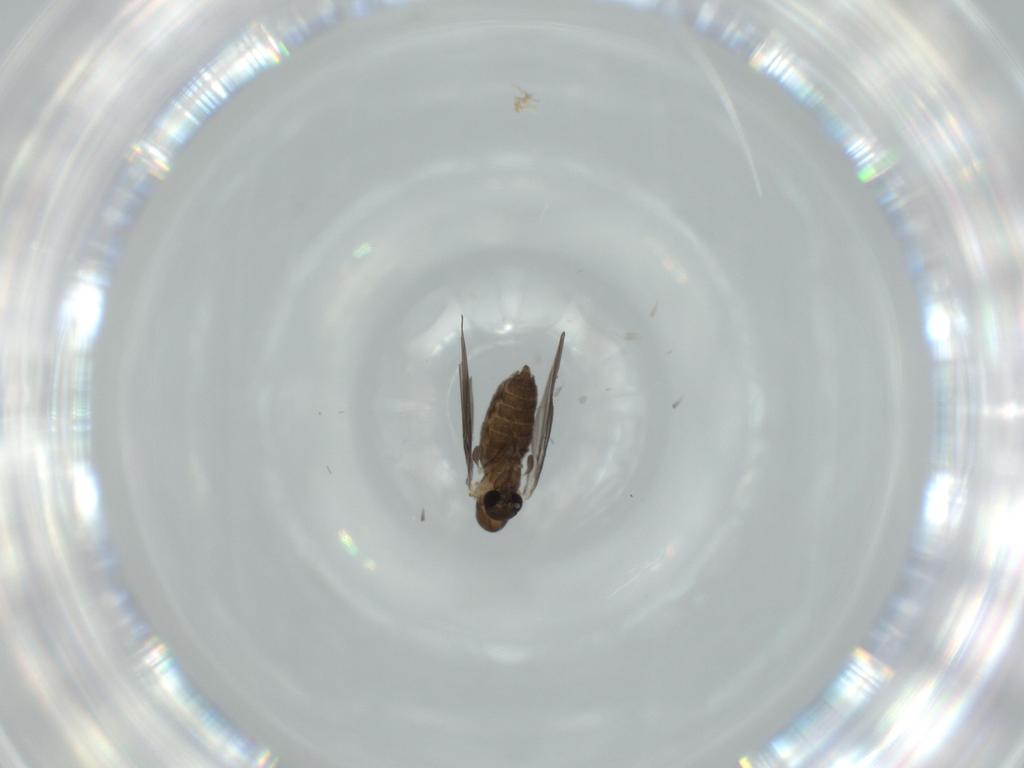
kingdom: Animalia
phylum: Arthropoda
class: Insecta
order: Diptera
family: Psychodidae
